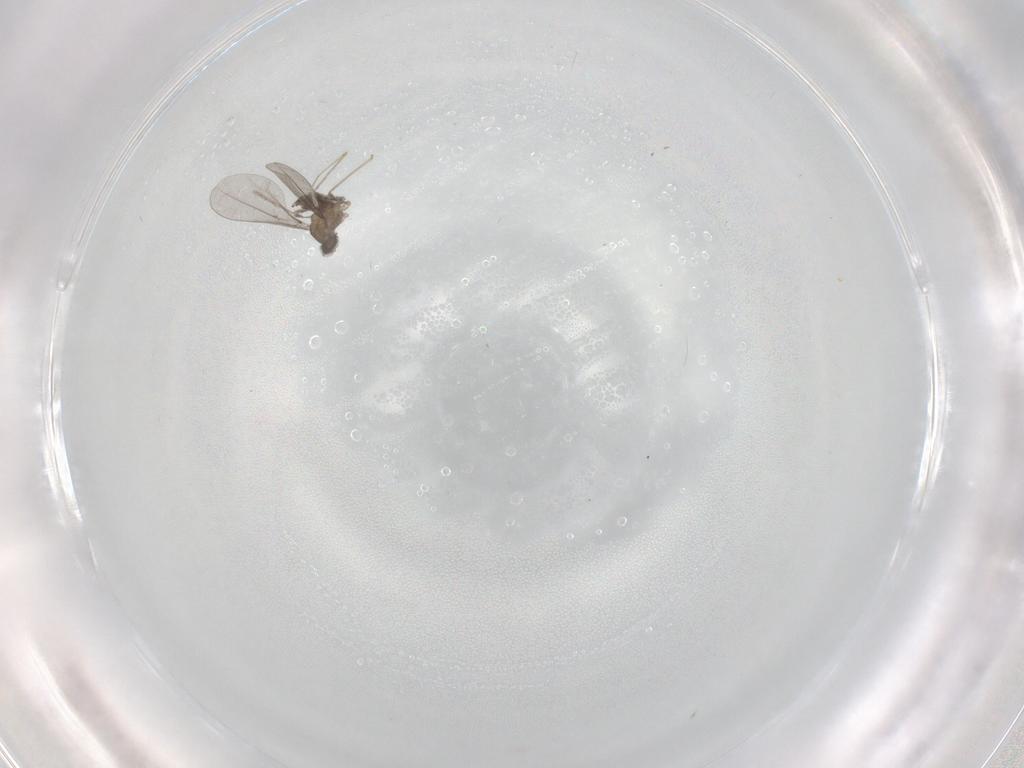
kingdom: Animalia
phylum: Arthropoda
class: Insecta
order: Diptera
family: Cecidomyiidae
